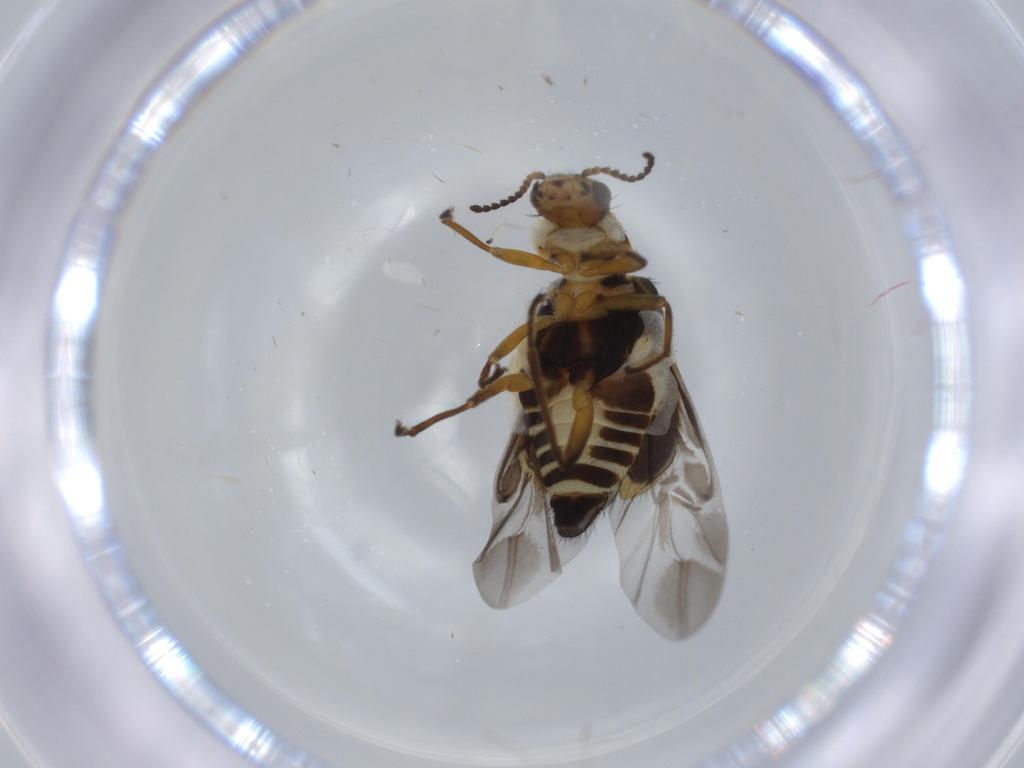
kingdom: Animalia
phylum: Arthropoda
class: Insecta
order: Coleoptera
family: Melyridae
